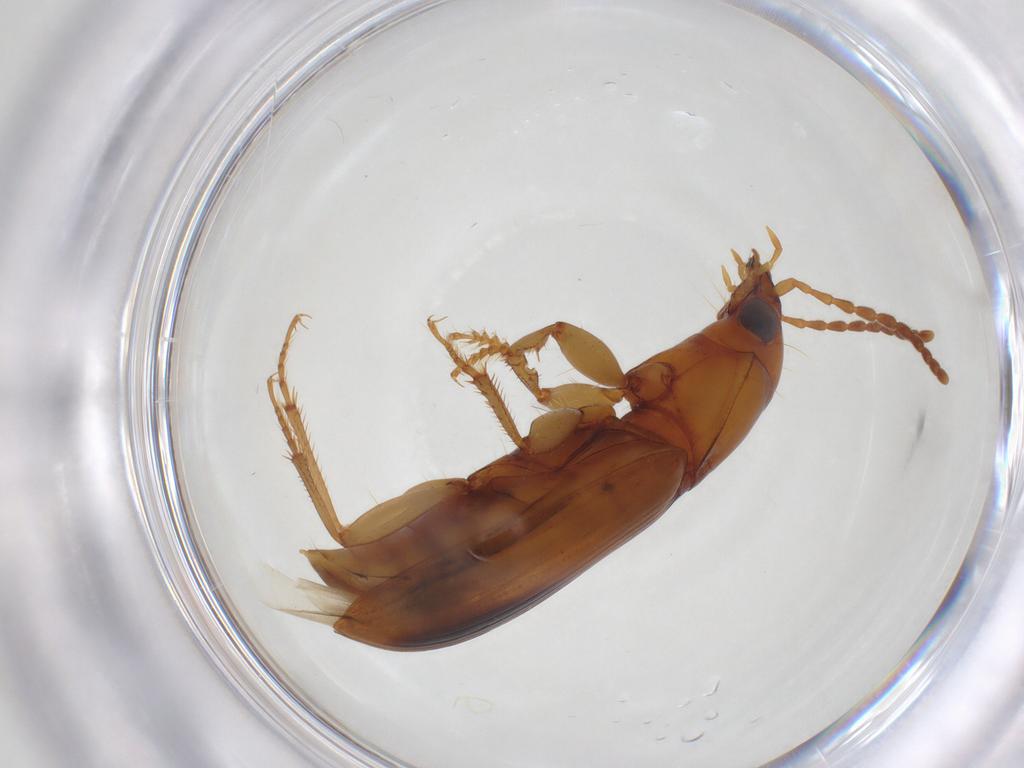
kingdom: Animalia
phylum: Arthropoda
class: Insecta
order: Coleoptera
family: Carabidae
